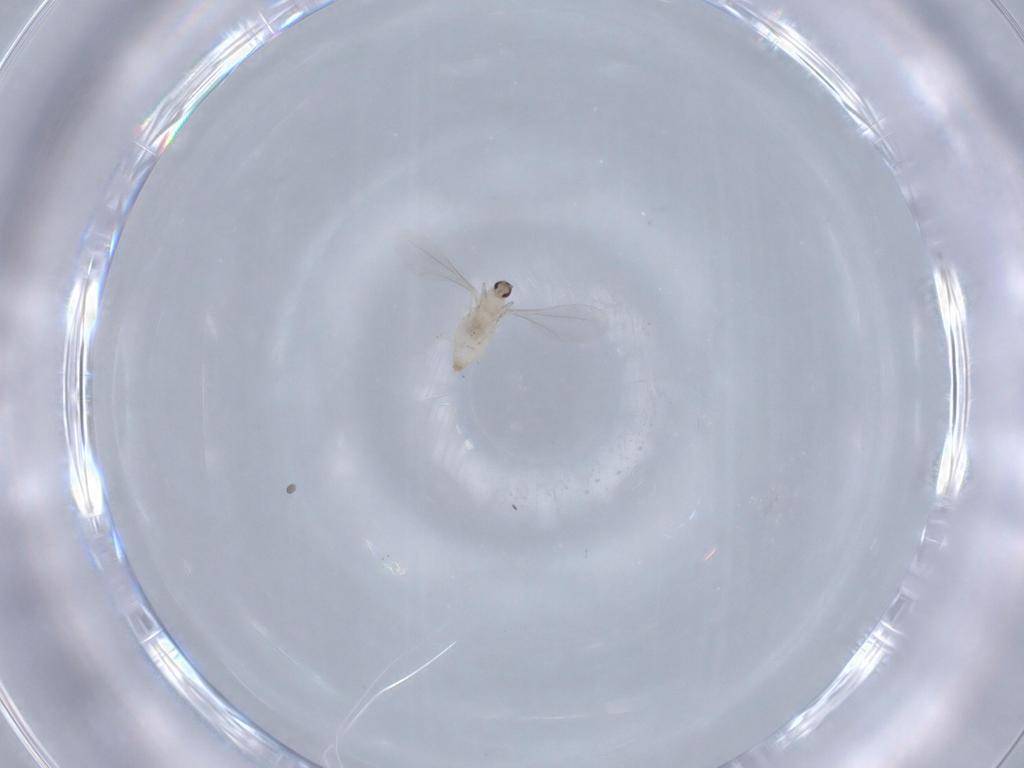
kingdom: Animalia
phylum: Arthropoda
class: Insecta
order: Diptera
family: Cecidomyiidae
